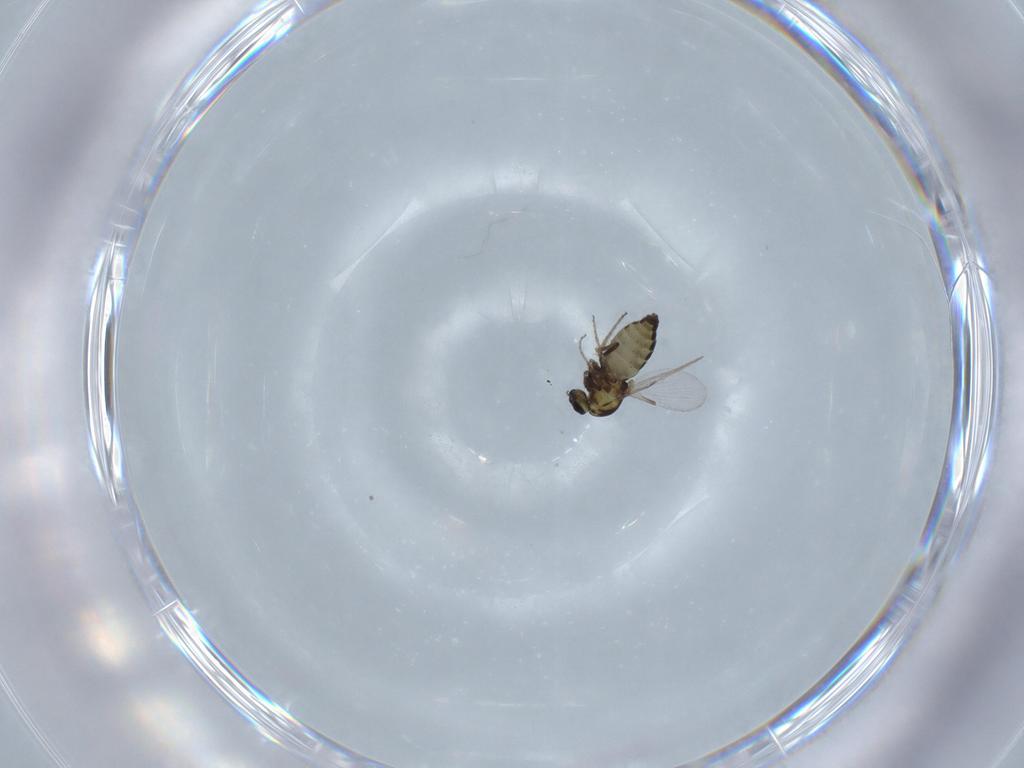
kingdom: Animalia
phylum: Arthropoda
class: Insecta
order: Diptera
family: Ceratopogonidae
